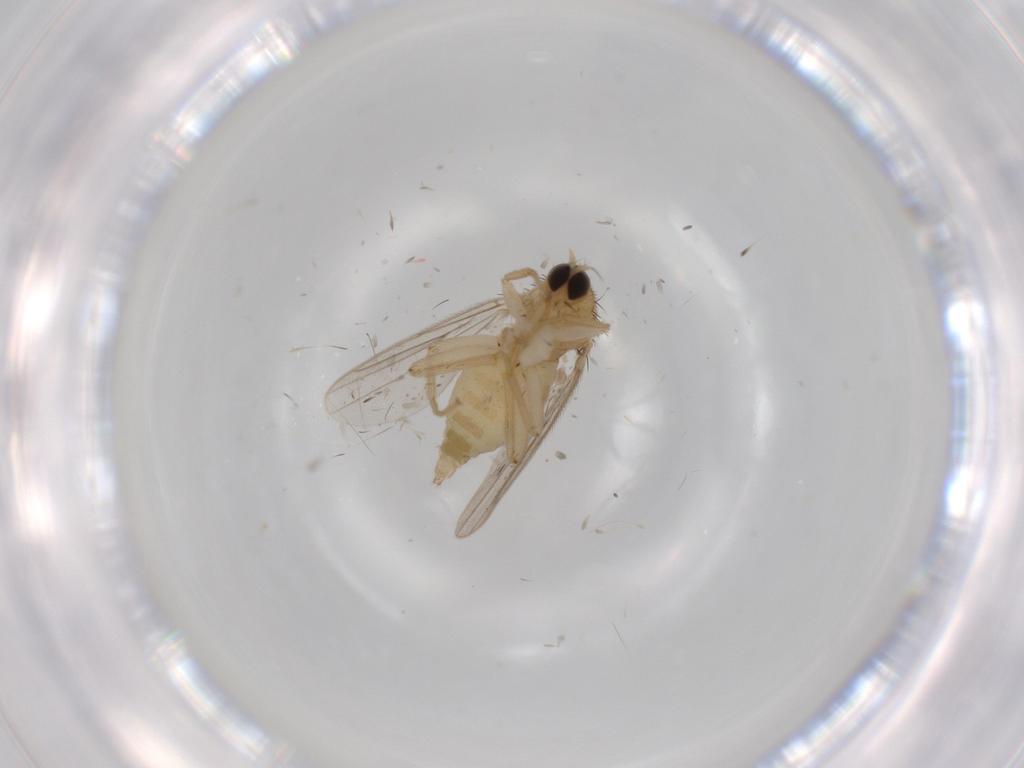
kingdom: Animalia
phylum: Arthropoda
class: Insecta
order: Diptera
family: Hybotidae
